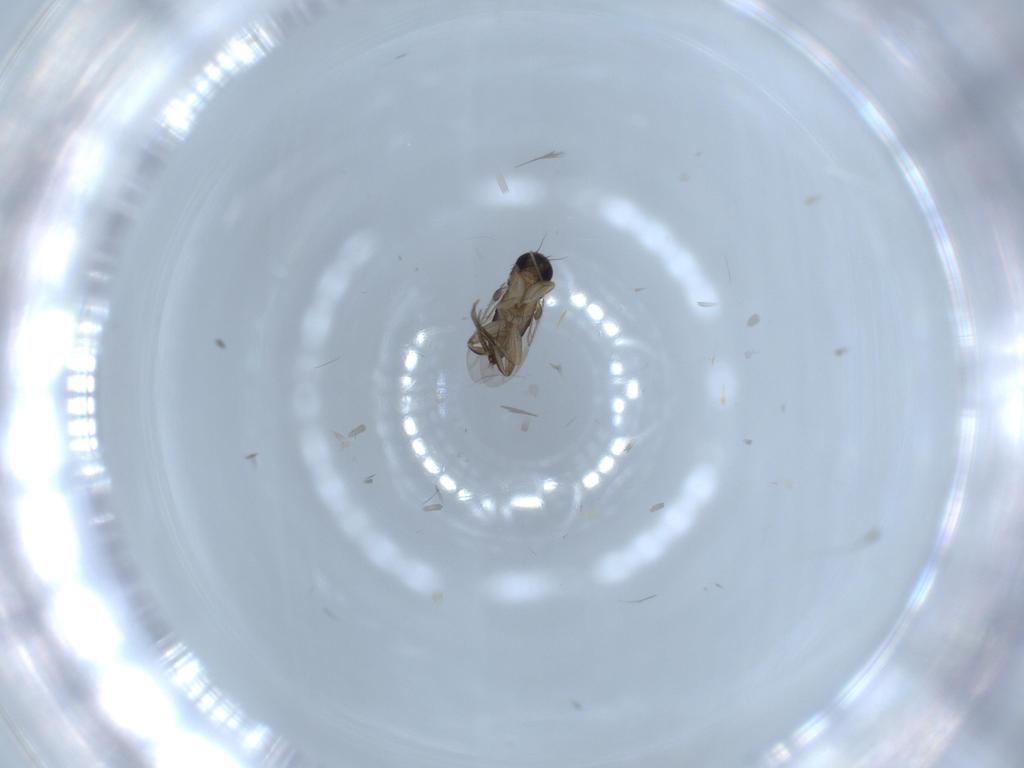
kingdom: Animalia
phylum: Arthropoda
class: Insecta
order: Diptera
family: Phoridae
